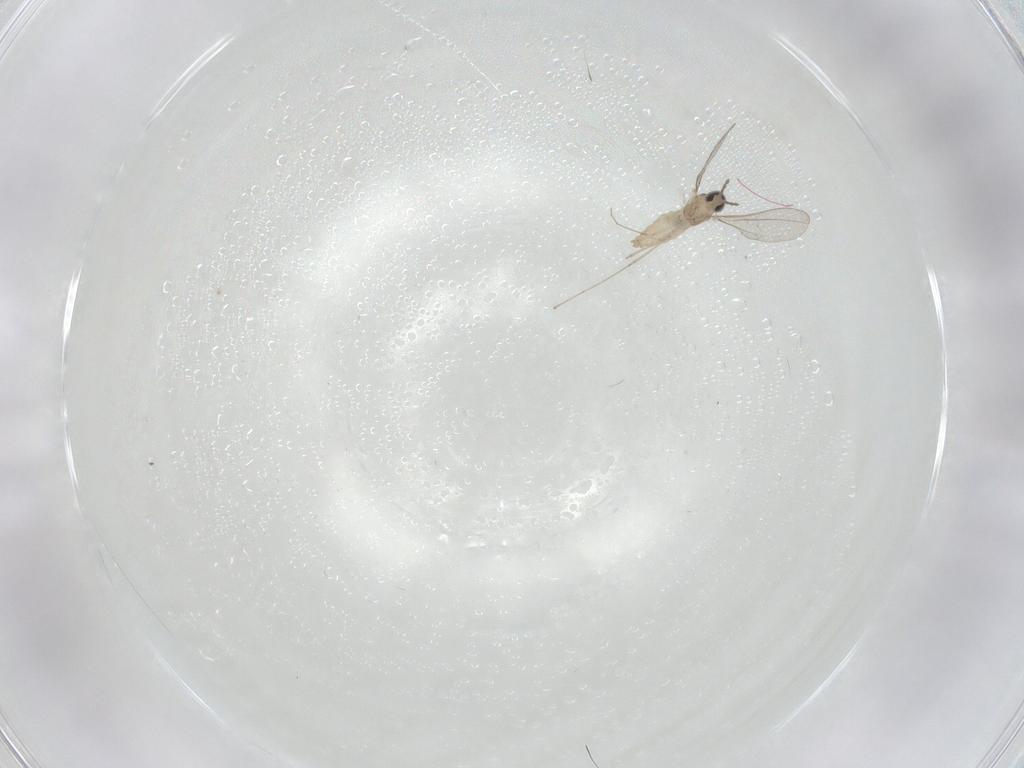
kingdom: Animalia
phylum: Arthropoda
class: Insecta
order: Diptera
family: Cecidomyiidae
